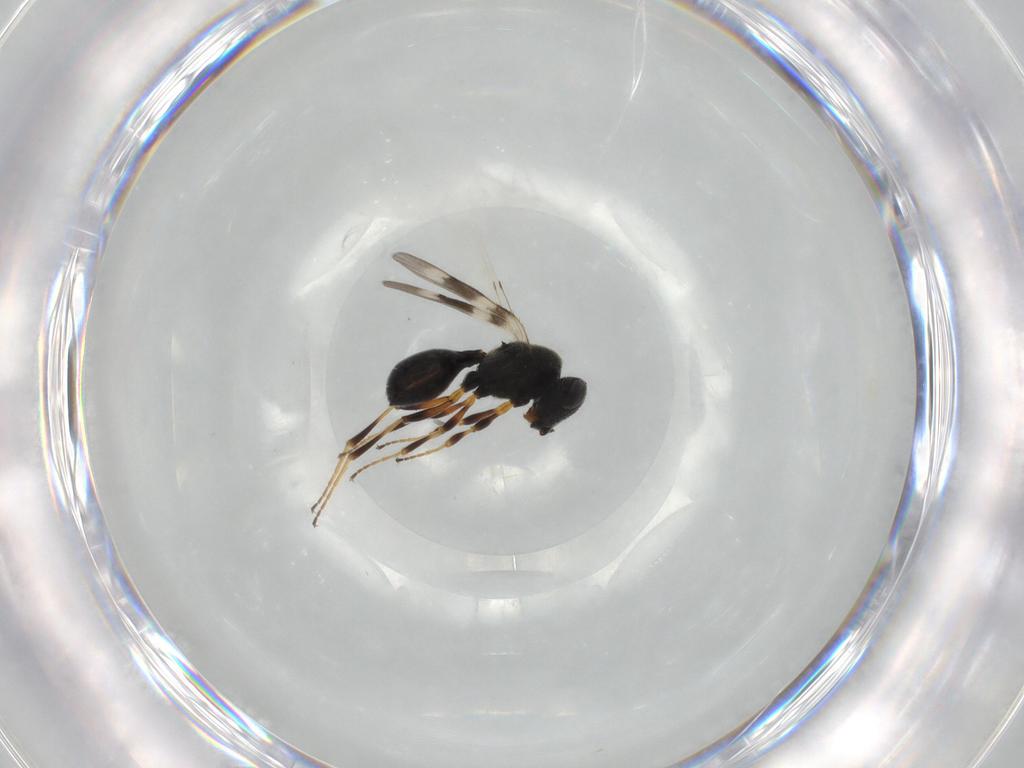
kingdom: Animalia
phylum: Arthropoda
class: Insecta
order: Hymenoptera
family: Scelionidae
